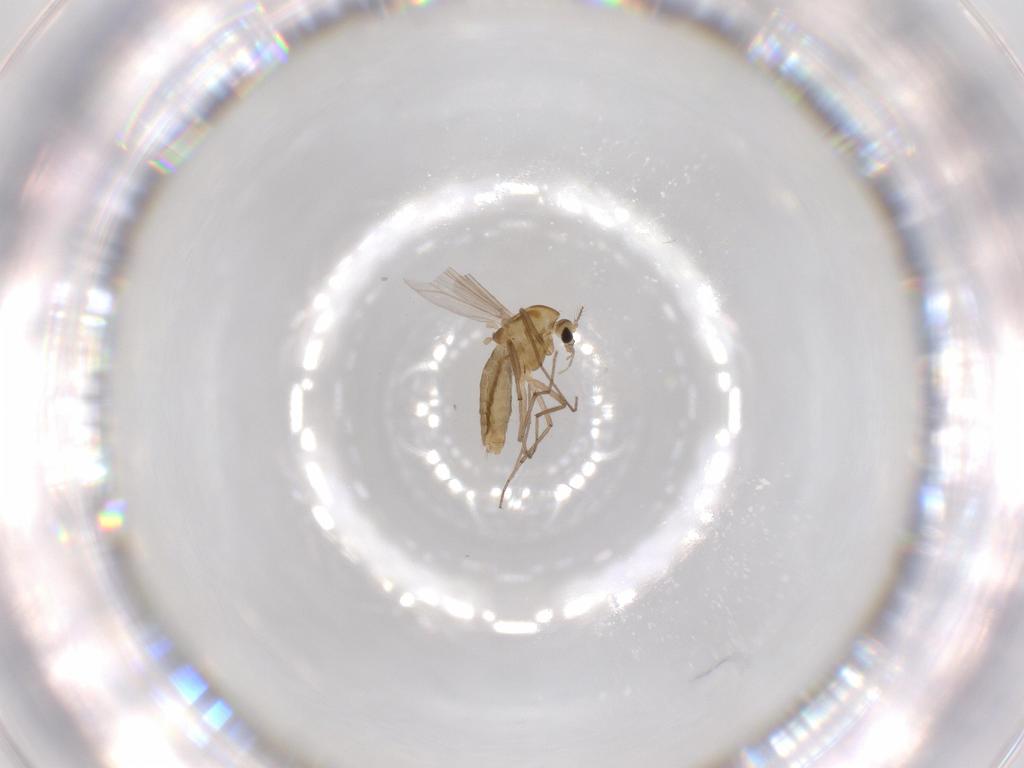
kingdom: Animalia
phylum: Arthropoda
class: Insecta
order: Diptera
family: Chironomidae
